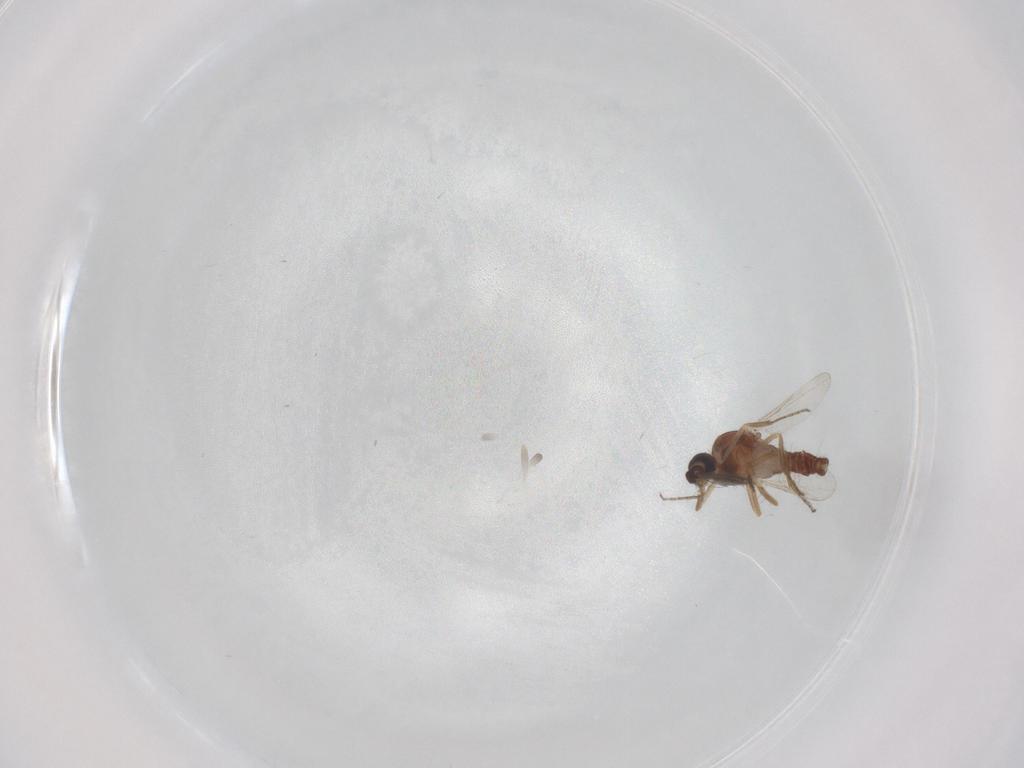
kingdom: Animalia
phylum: Arthropoda
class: Insecta
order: Diptera
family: Ceratopogonidae
